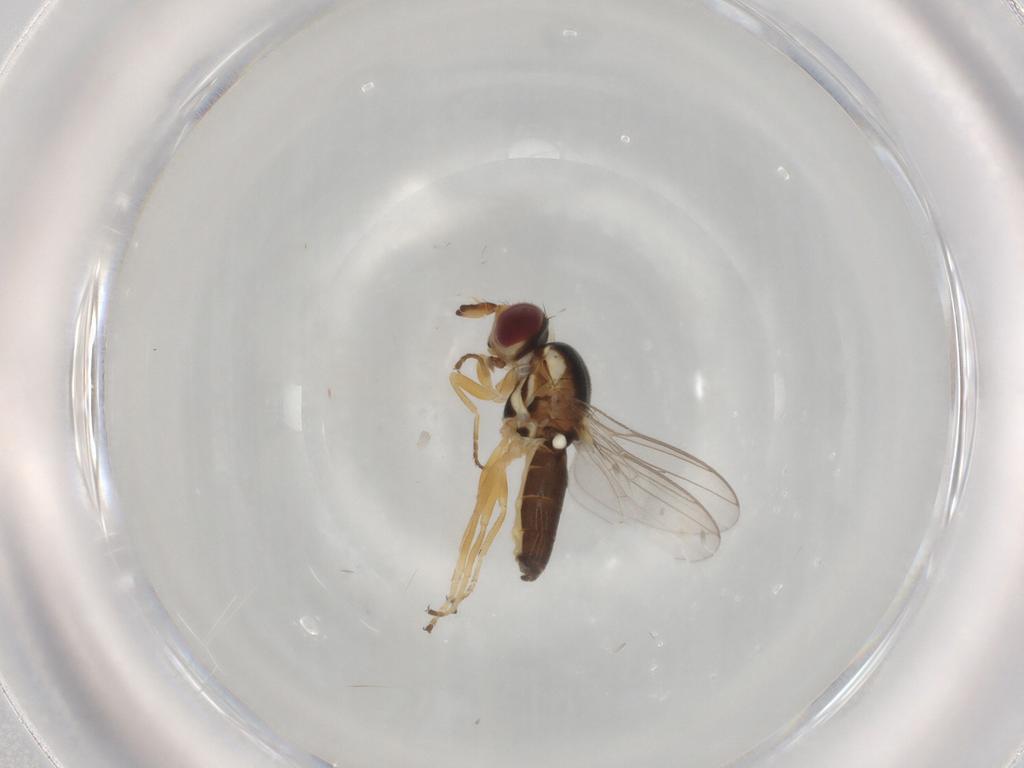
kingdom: Animalia
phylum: Arthropoda
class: Insecta
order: Diptera
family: Chloropidae
